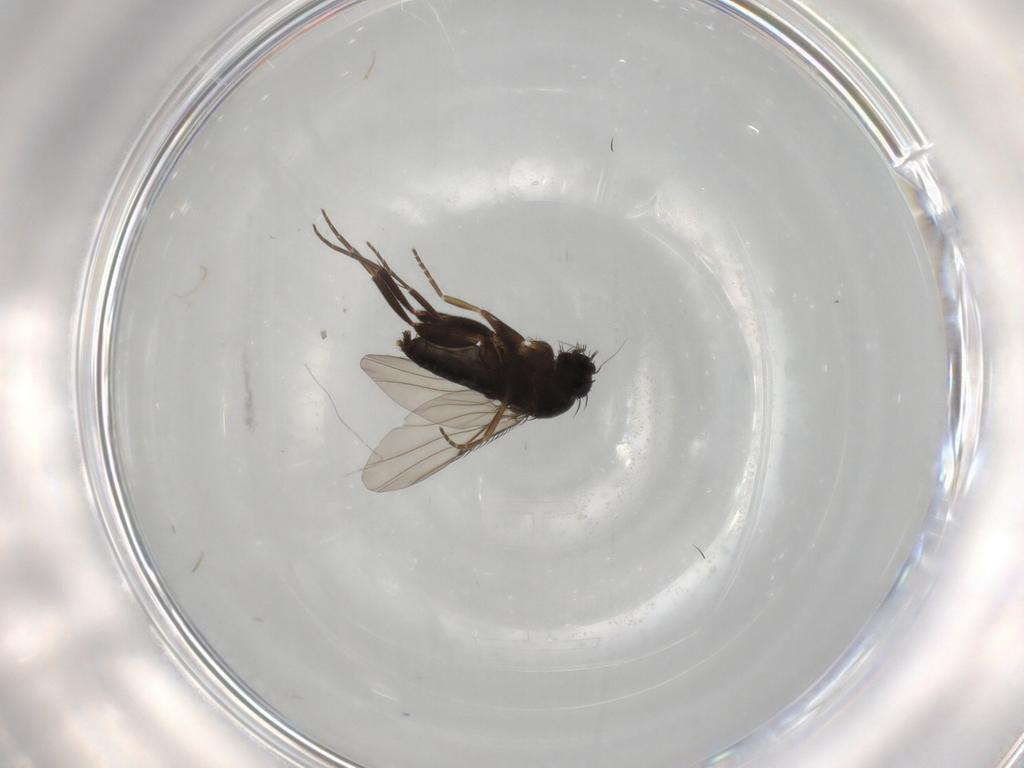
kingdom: Animalia
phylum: Arthropoda
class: Insecta
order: Diptera
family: Phoridae
